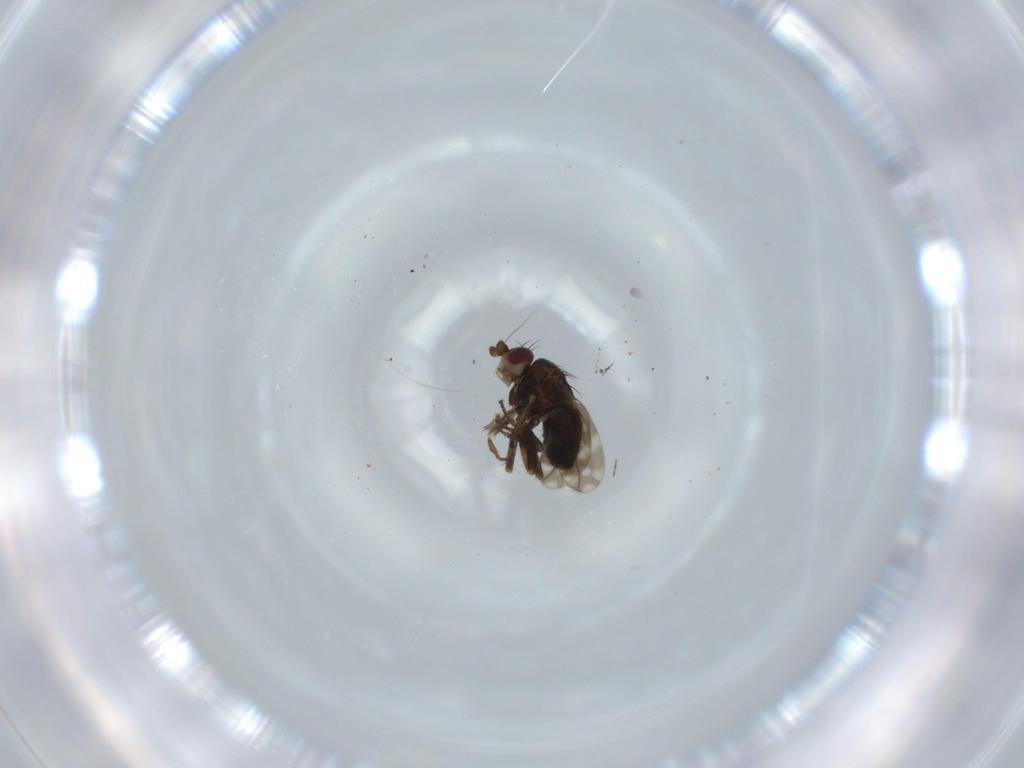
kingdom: Animalia
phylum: Arthropoda
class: Insecta
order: Diptera
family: Sphaeroceridae
